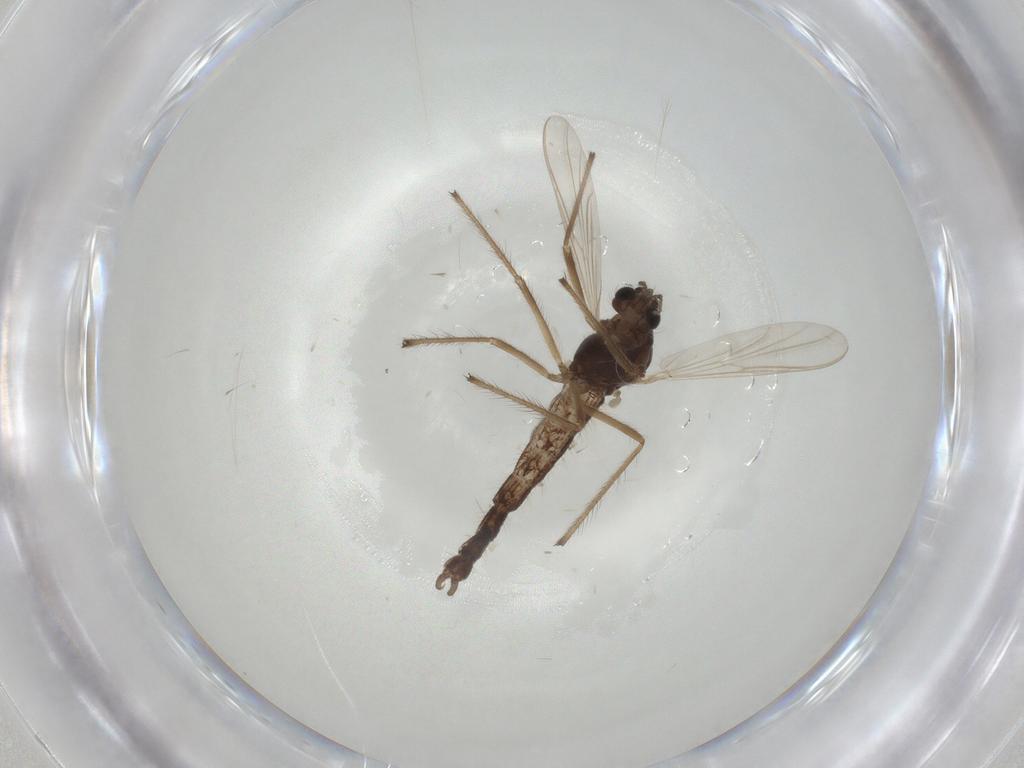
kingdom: Animalia
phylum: Arthropoda
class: Insecta
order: Diptera
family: Chironomidae
